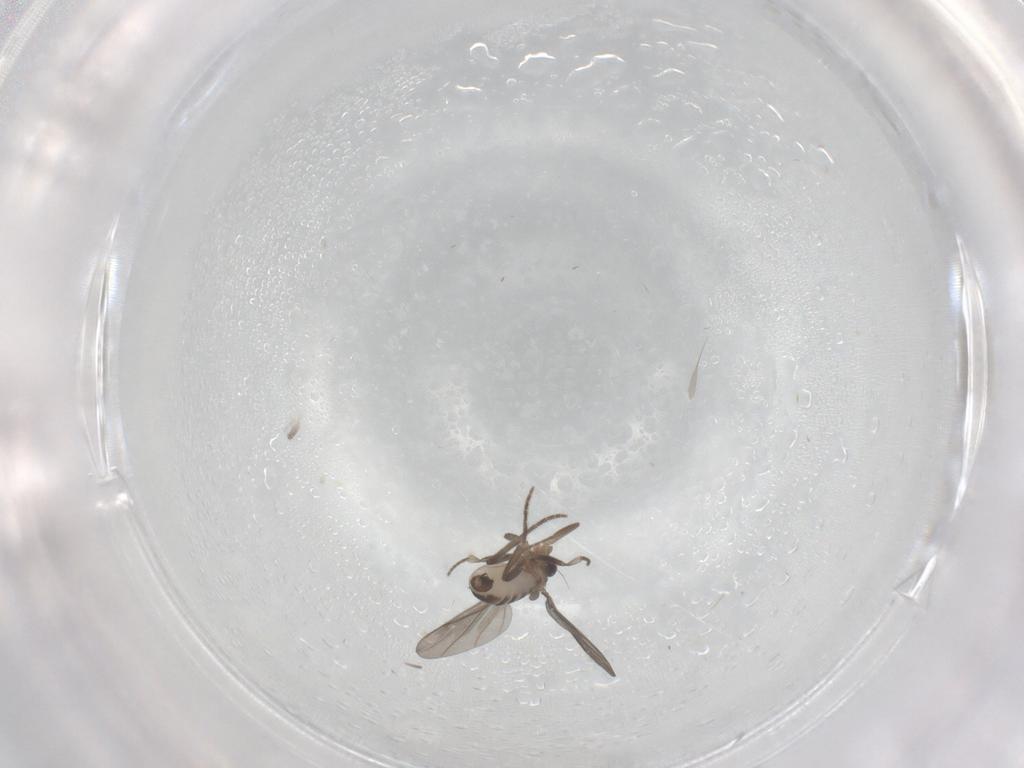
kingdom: Animalia
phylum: Arthropoda
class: Insecta
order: Diptera
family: Phoridae
